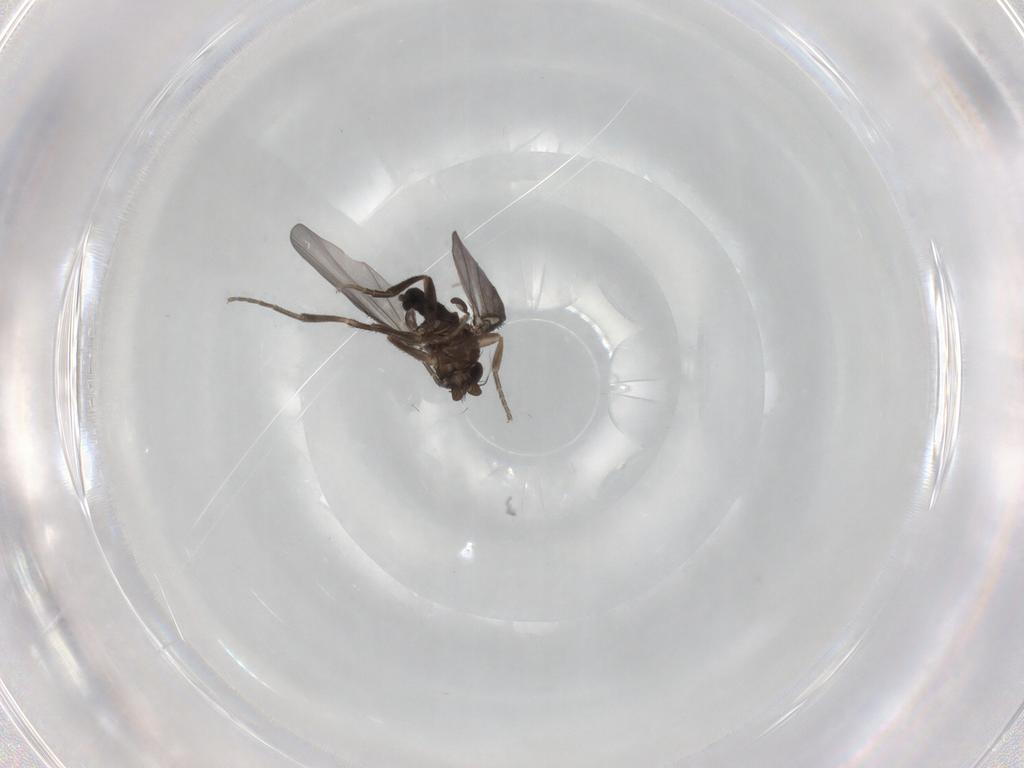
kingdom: Animalia
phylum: Arthropoda
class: Insecta
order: Diptera
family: Phoridae
